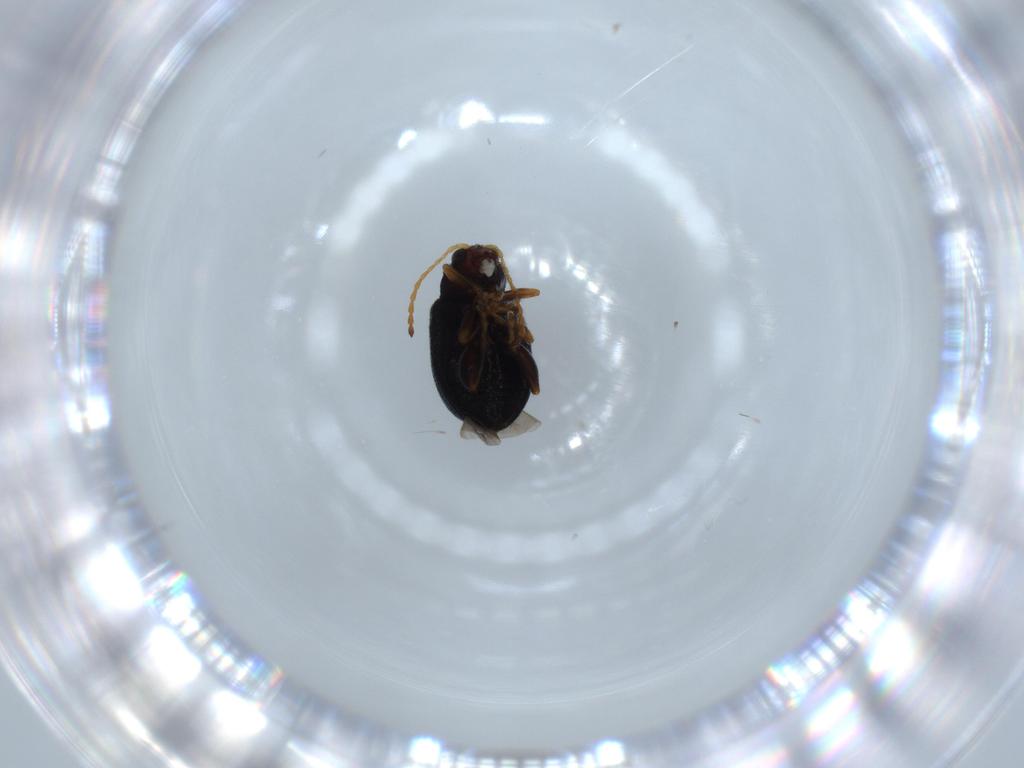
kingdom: Animalia
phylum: Arthropoda
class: Insecta
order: Coleoptera
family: Chrysomelidae
